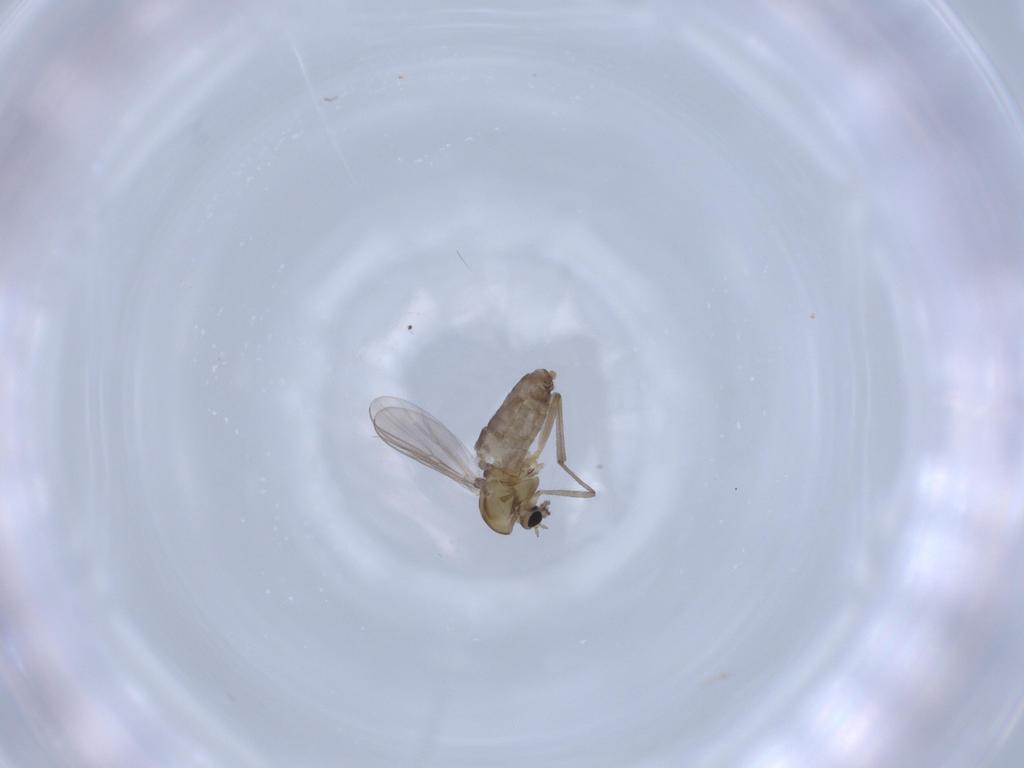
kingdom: Animalia
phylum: Arthropoda
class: Insecta
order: Diptera
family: Chironomidae
